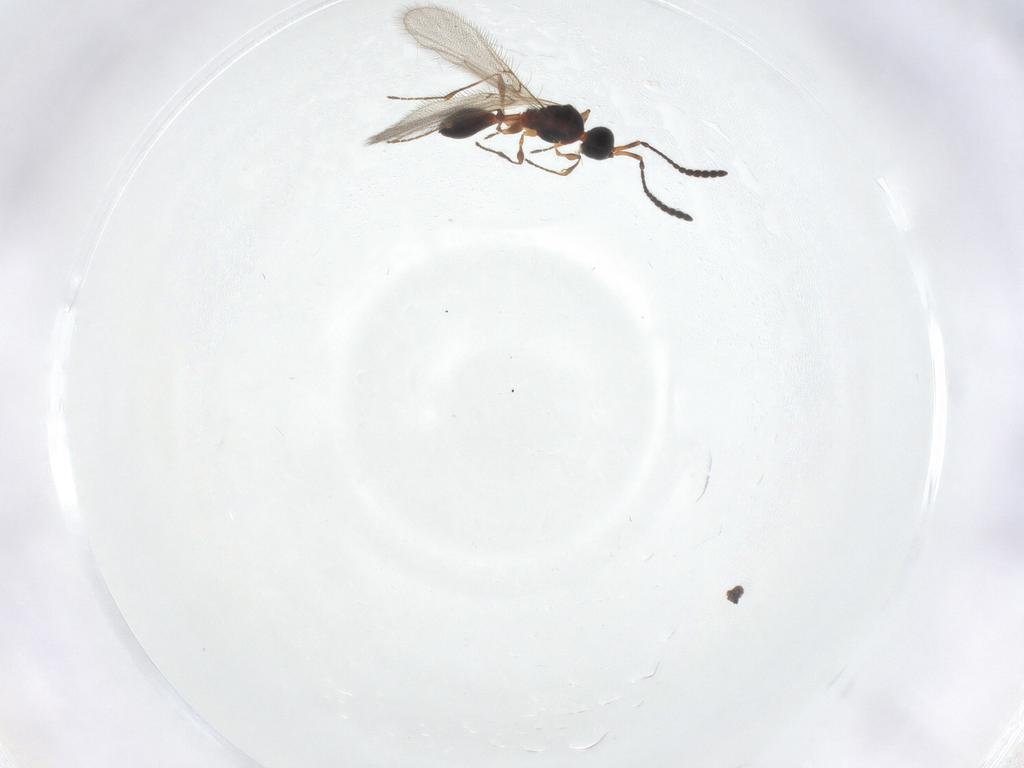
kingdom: Animalia
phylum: Arthropoda
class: Insecta
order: Hymenoptera
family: Diapriidae
